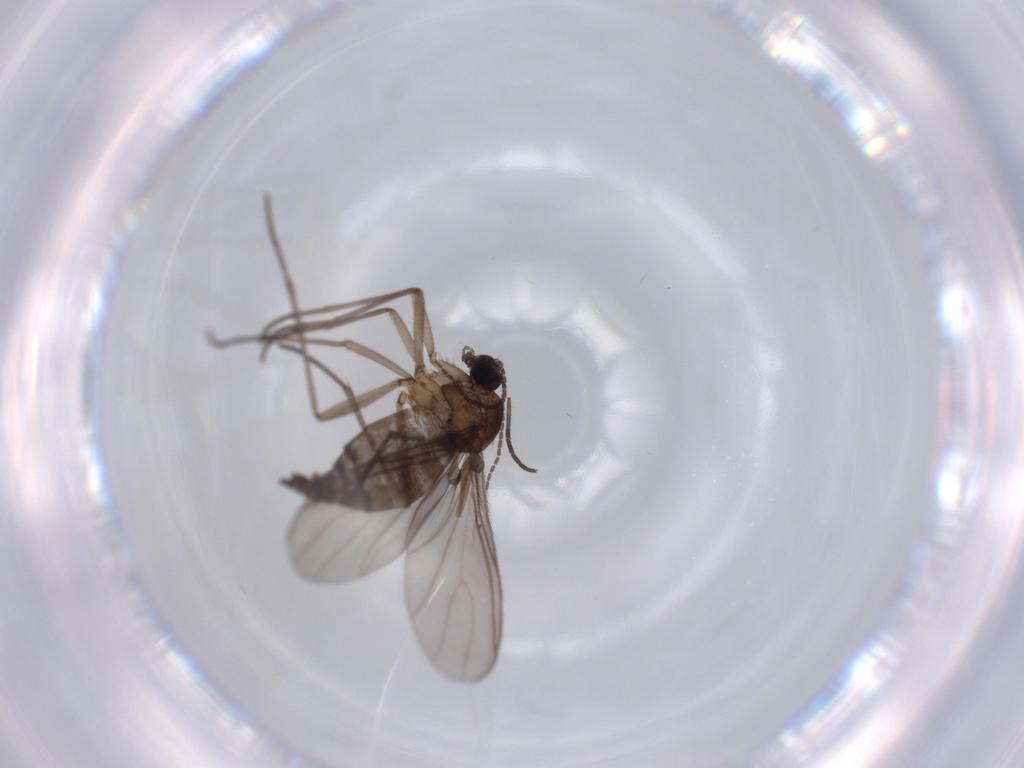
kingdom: Animalia
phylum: Arthropoda
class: Insecta
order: Diptera
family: Sciaridae
